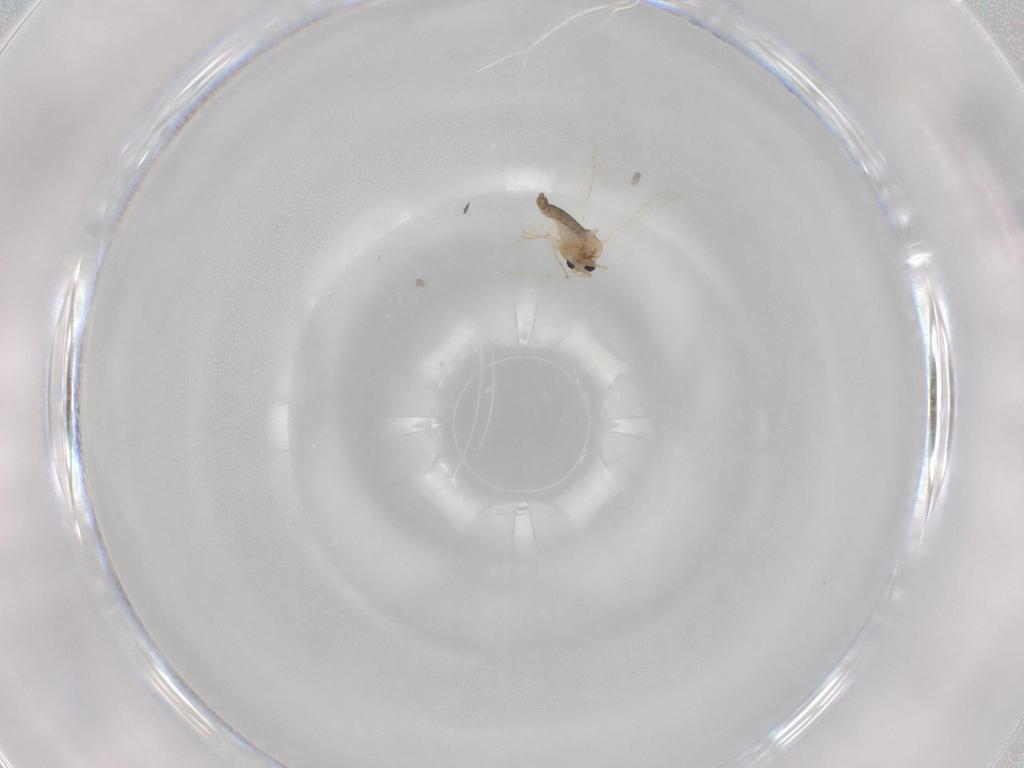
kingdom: Animalia
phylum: Arthropoda
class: Insecta
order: Diptera
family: Chironomidae
